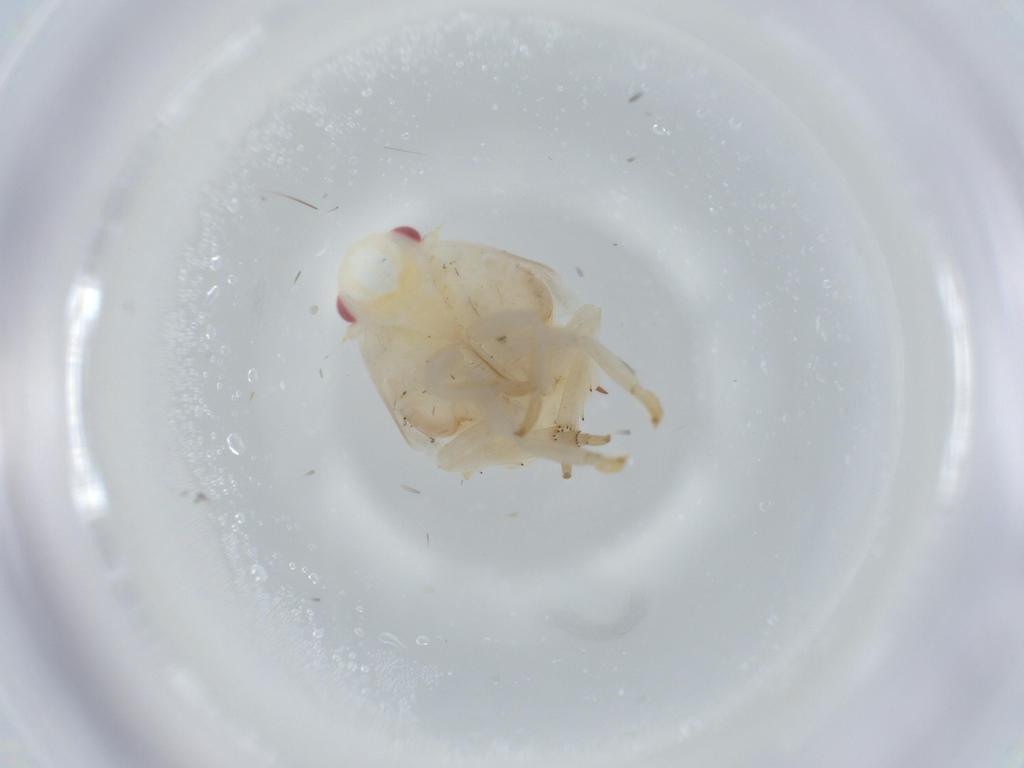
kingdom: Animalia
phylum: Arthropoda
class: Insecta
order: Hemiptera
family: Flatidae
